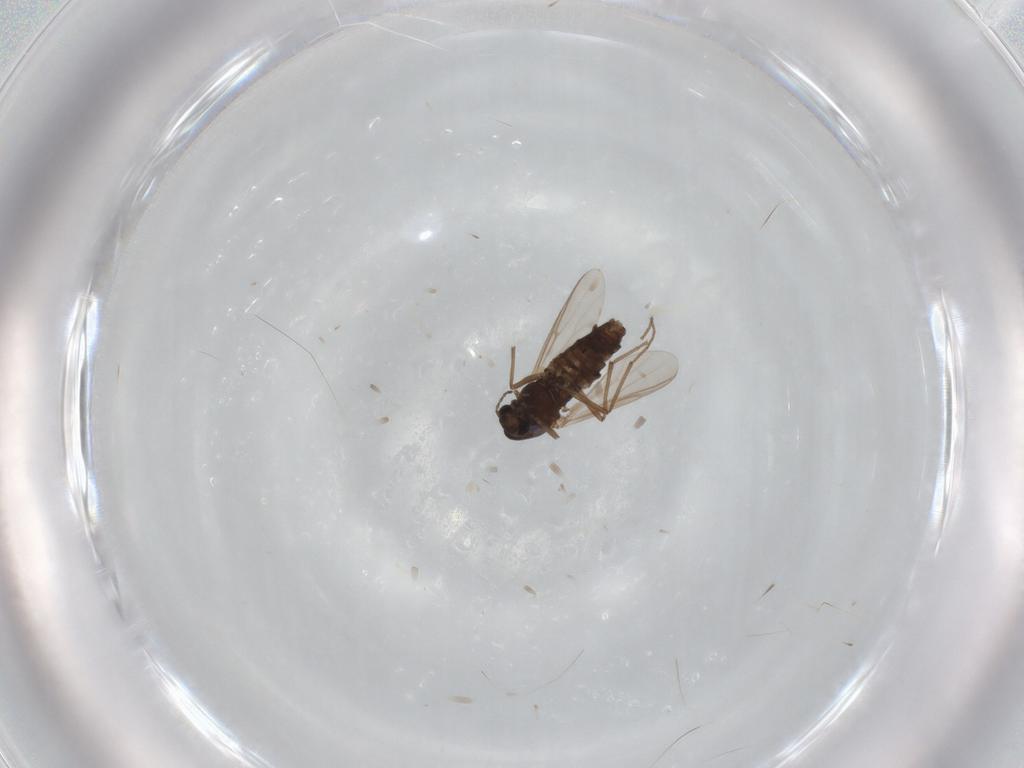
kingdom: Animalia
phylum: Arthropoda
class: Insecta
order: Diptera
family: Chironomidae
